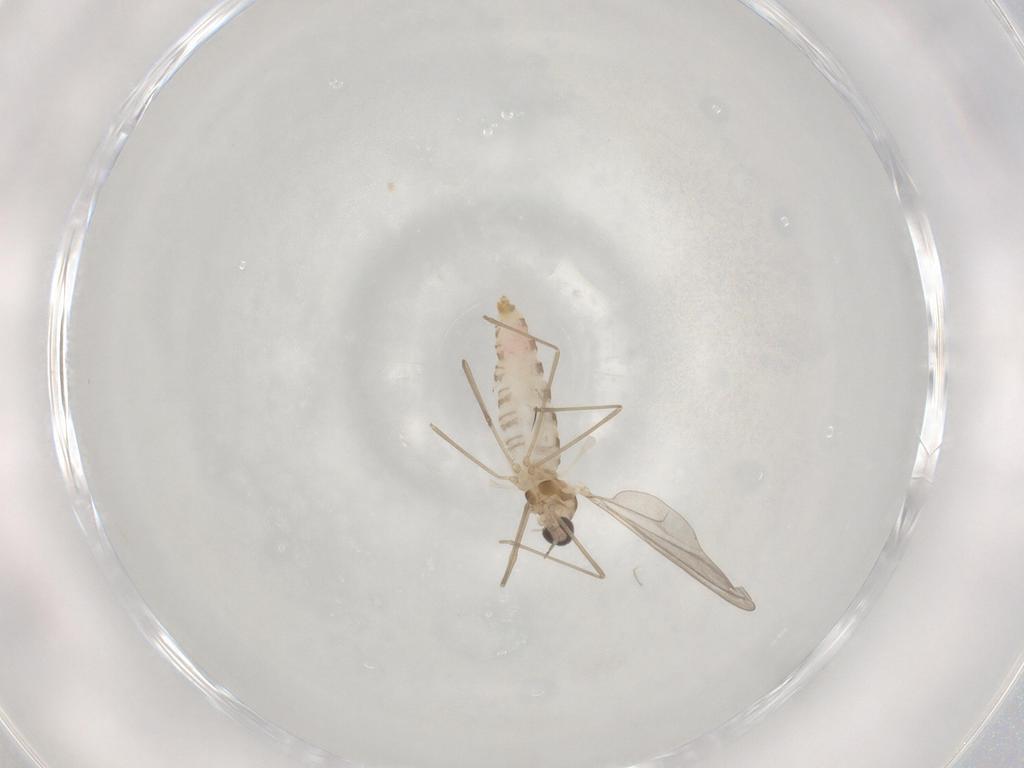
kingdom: Animalia
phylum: Arthropoda
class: Insecta
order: Diptera
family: Cecidomyiidae
